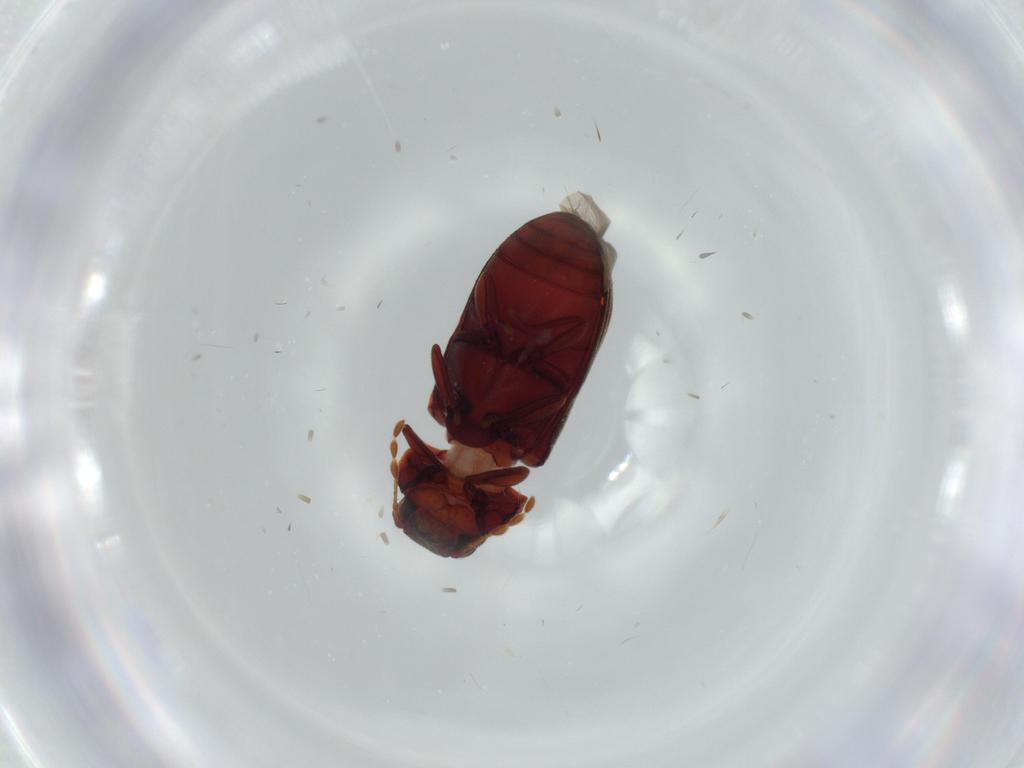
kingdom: Animalia
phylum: Arthropoda
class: Insecta
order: Coleoptera
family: Ptinidae
